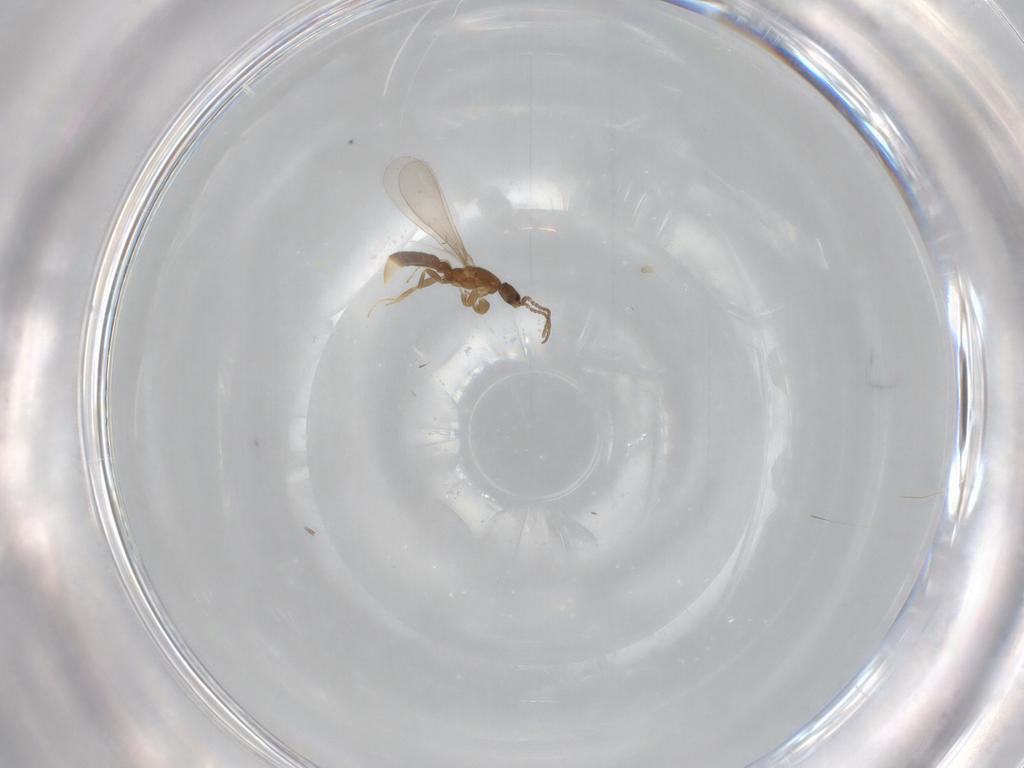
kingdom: Animalia
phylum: Arthropoda
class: Insecta
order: Hymenoptera
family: Formicidae
